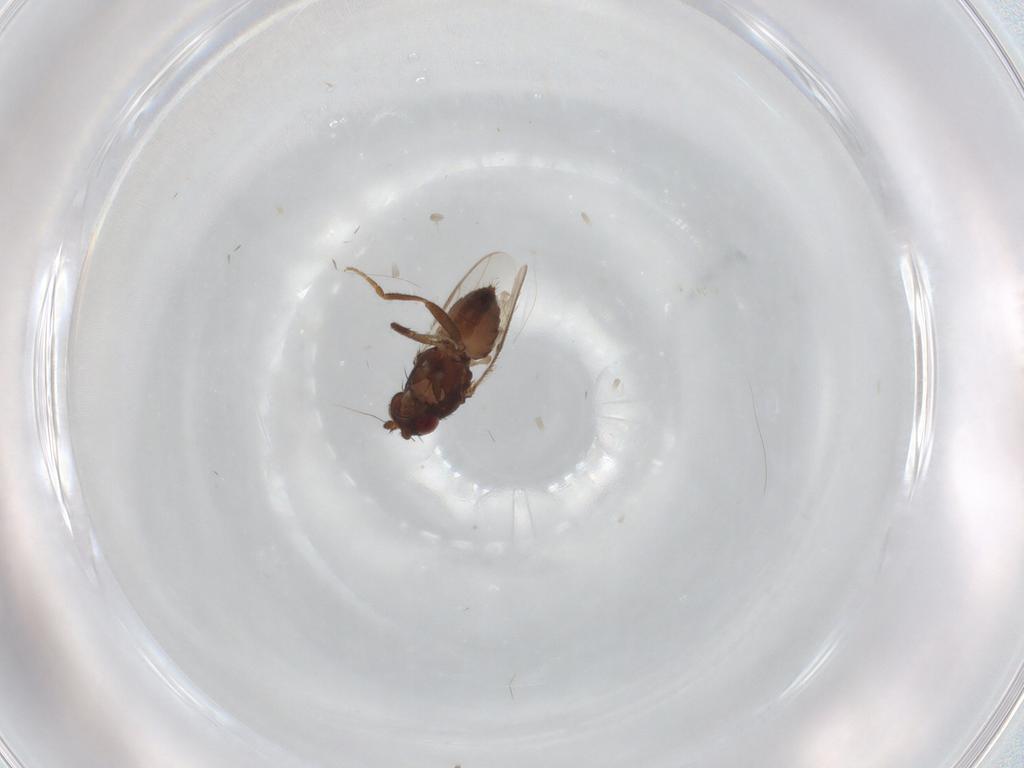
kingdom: Animalia
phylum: Arthropoda
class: Insecta
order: Diptera
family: Sphaeroceridae
